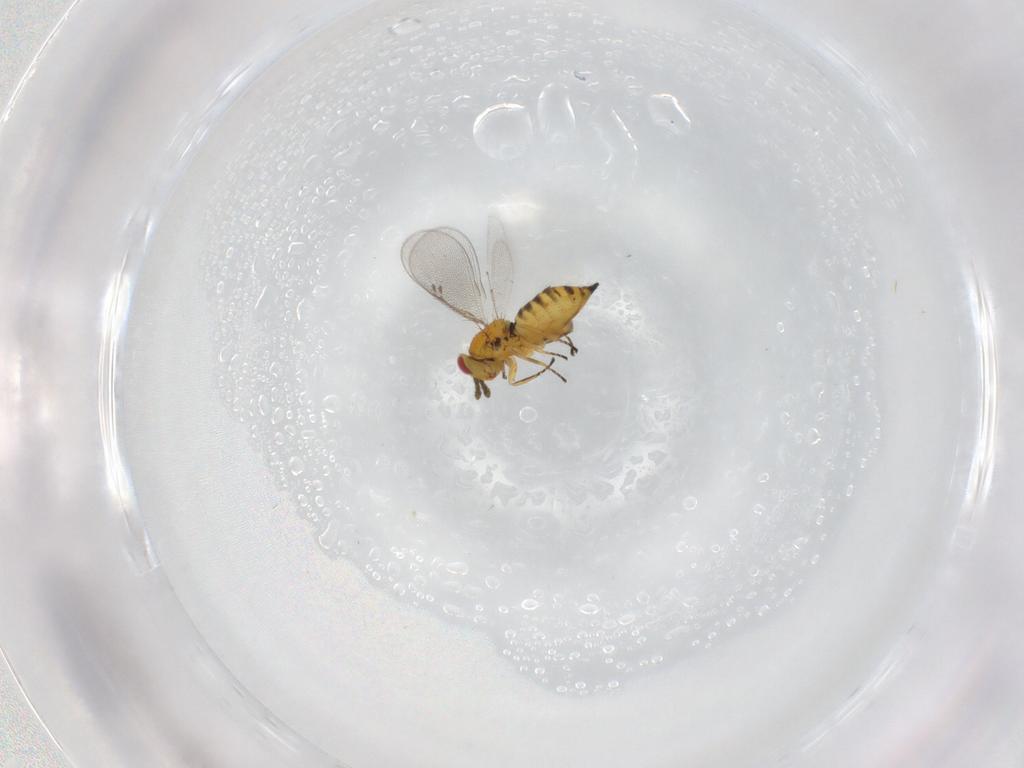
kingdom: Animalia
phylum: Arthropoda
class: Insecta
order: Hymenoptera
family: Eulophidae
